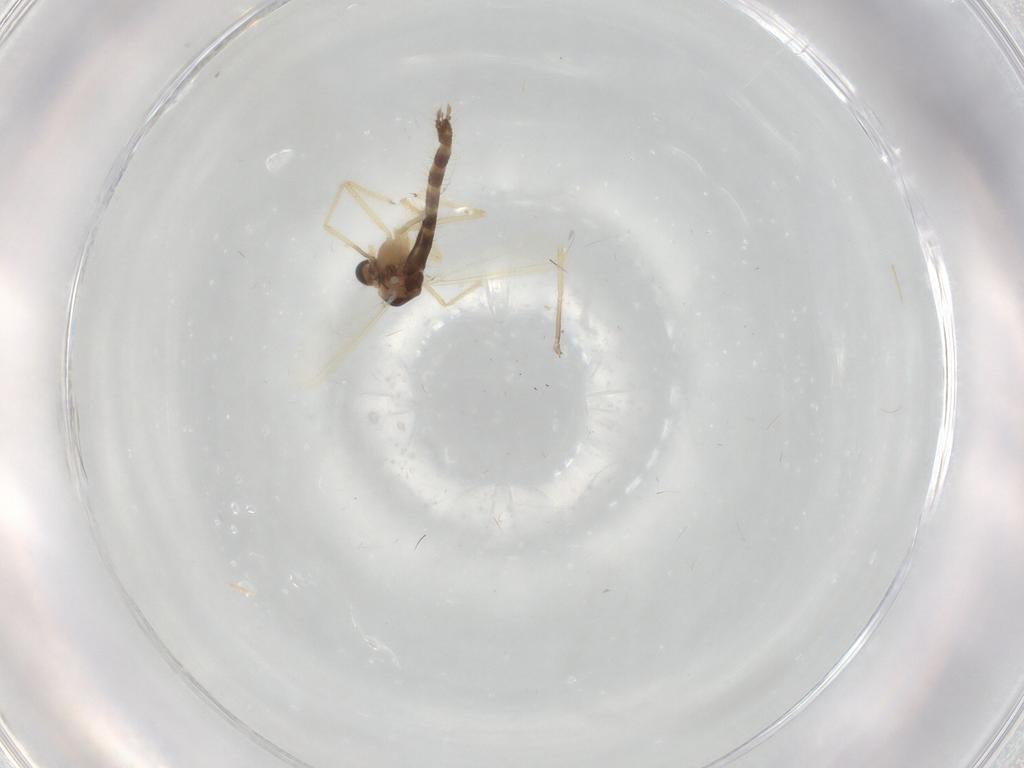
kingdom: Animalia
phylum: Arthropoda
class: Insecta
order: Diptera
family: Chironomidae
